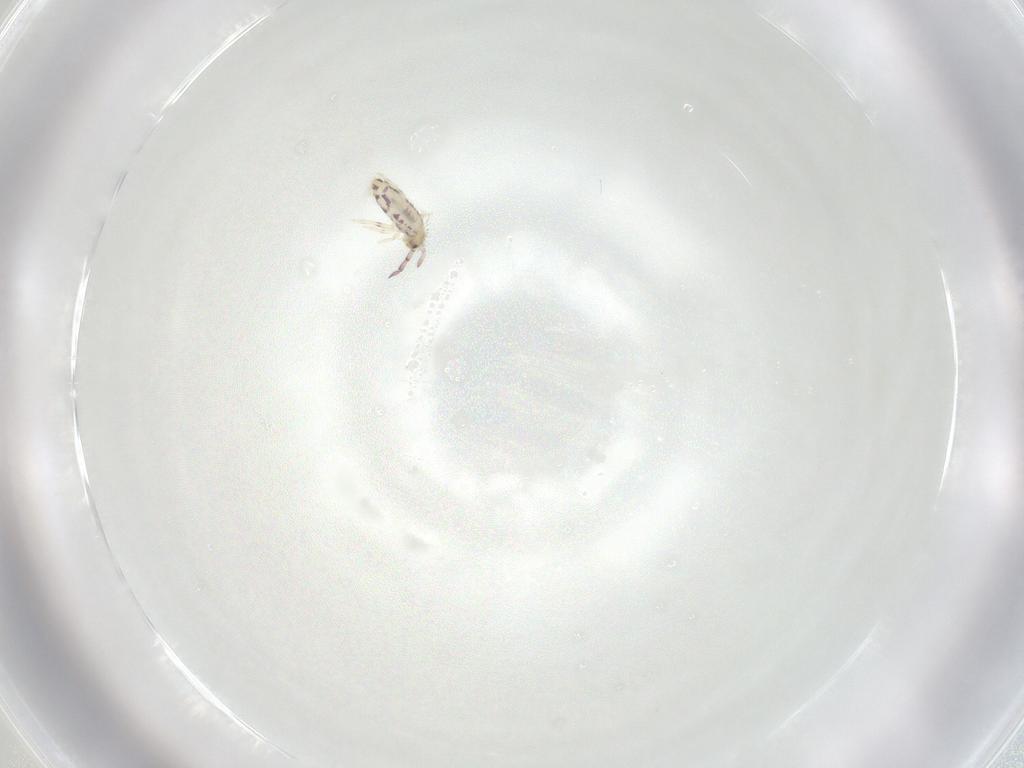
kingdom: Animalia
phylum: Arthropoda
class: Collembola
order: Entomobryomorpha
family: Entomobryidae
